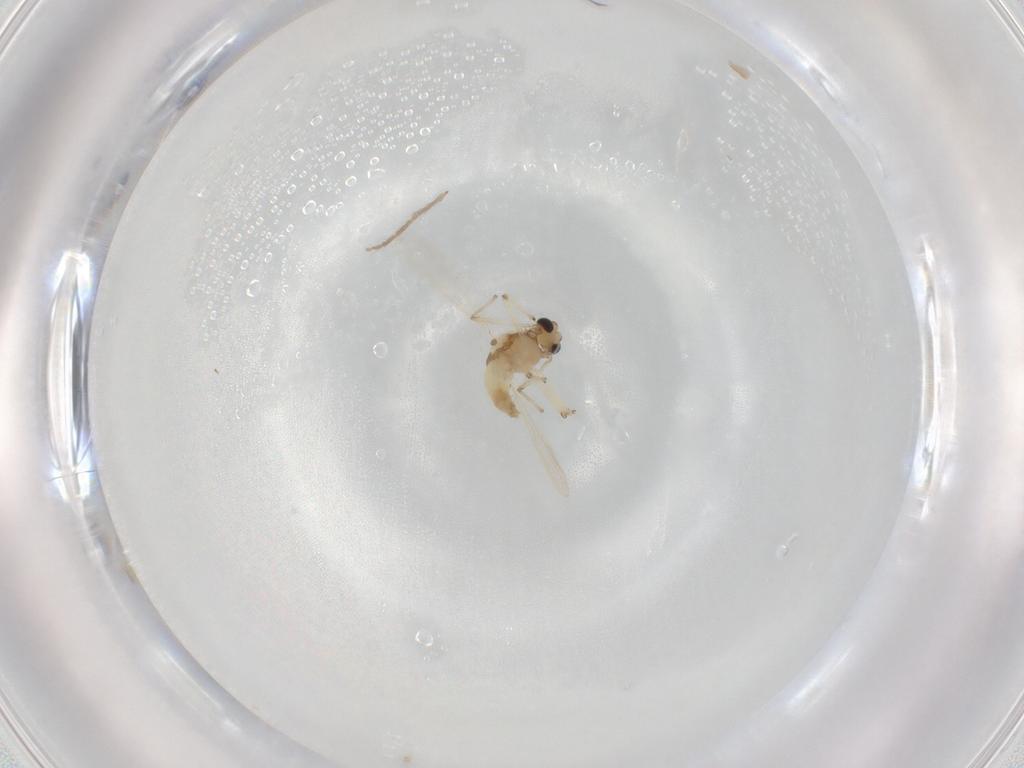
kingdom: Animalia
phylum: Arthropoda
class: Insecta
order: Diptera
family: Chironomidae
